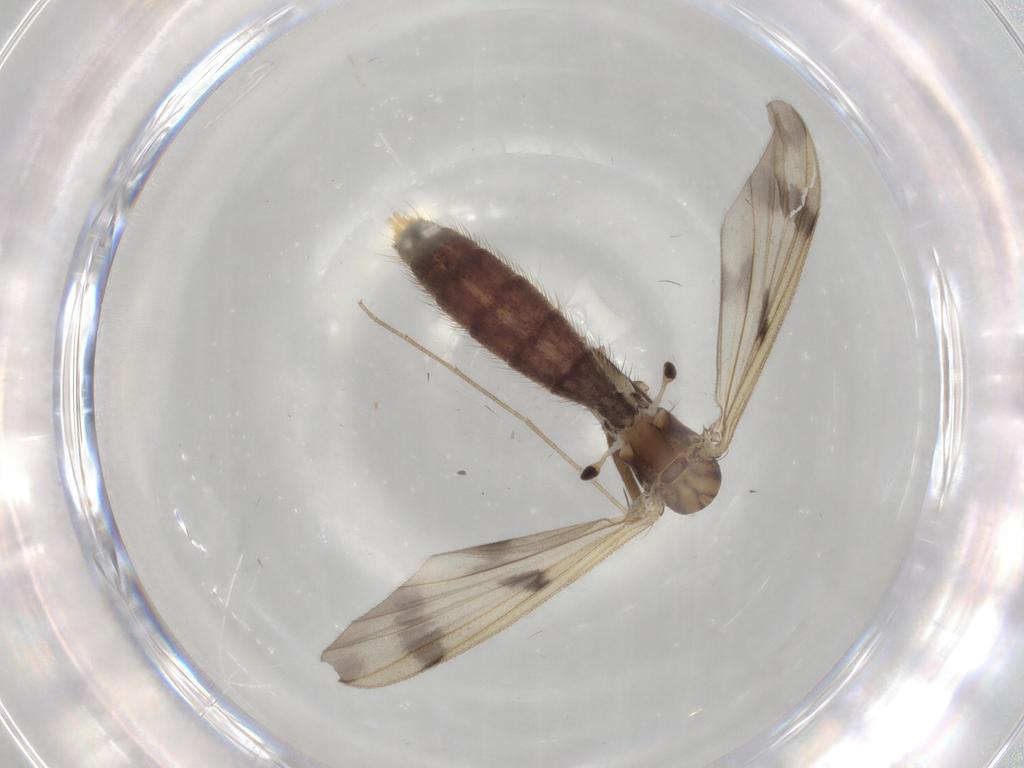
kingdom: Animalia
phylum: Arthropoda
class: Insecta
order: Diptera
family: Mycetophilidae
